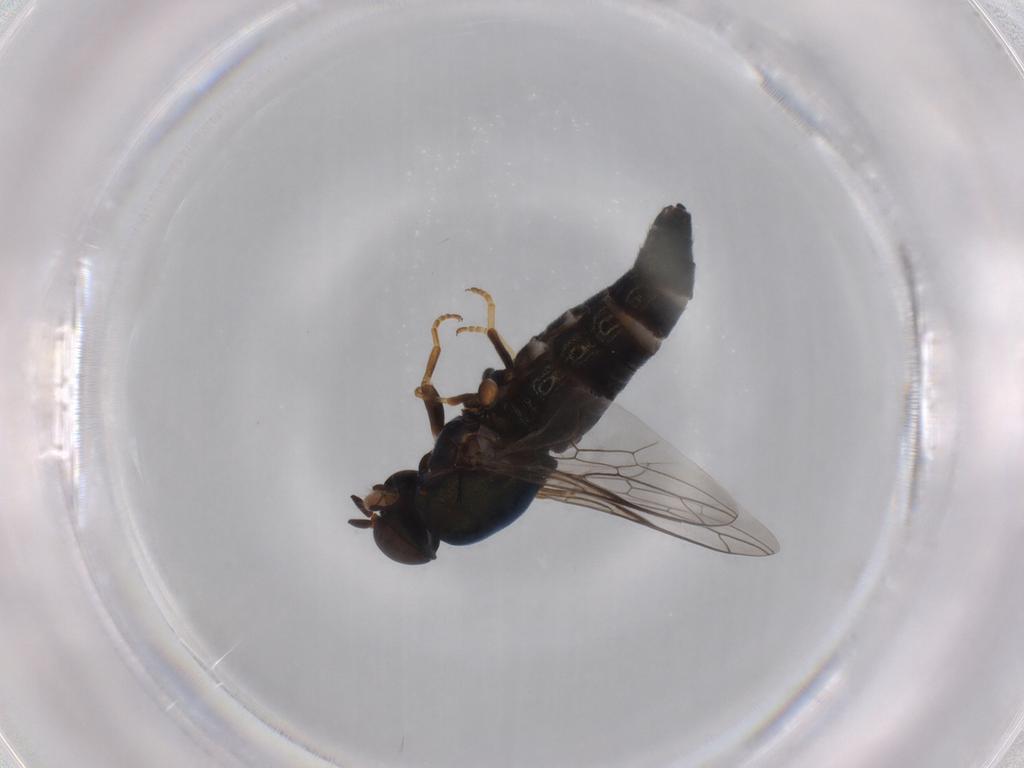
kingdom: Animalia
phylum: Arthropoda
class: Insecta
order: Diptera
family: Scenopinidae
